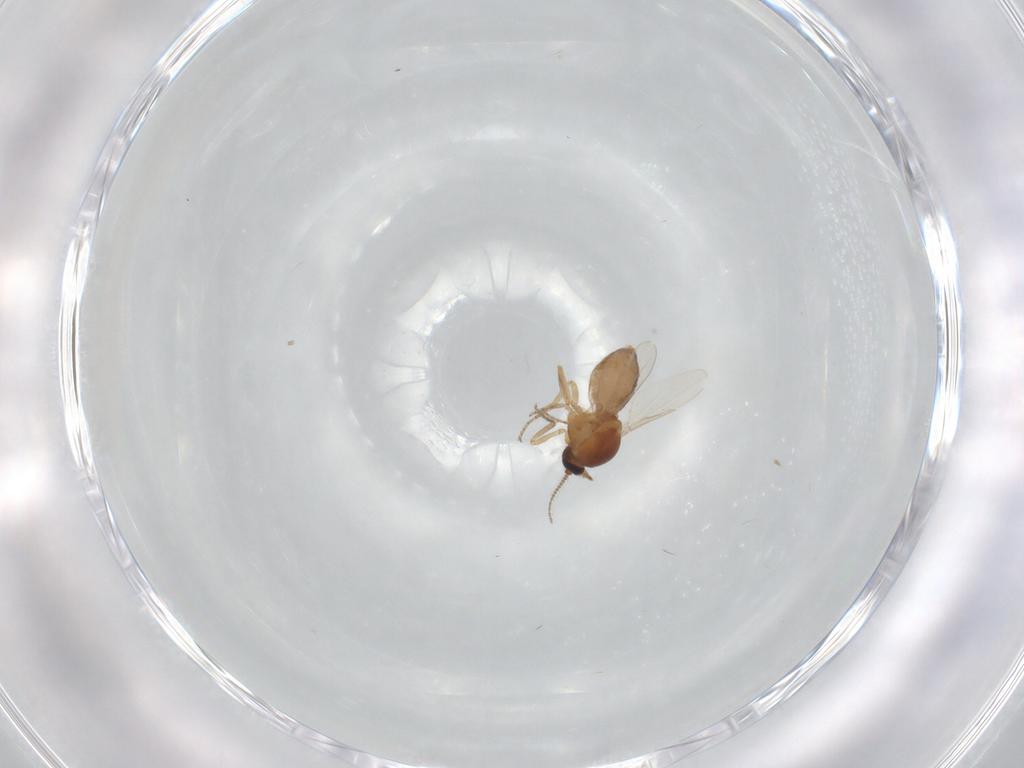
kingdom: Animalia
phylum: Arthropoda
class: Insecta
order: Diptera
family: Ceratopogonidae
